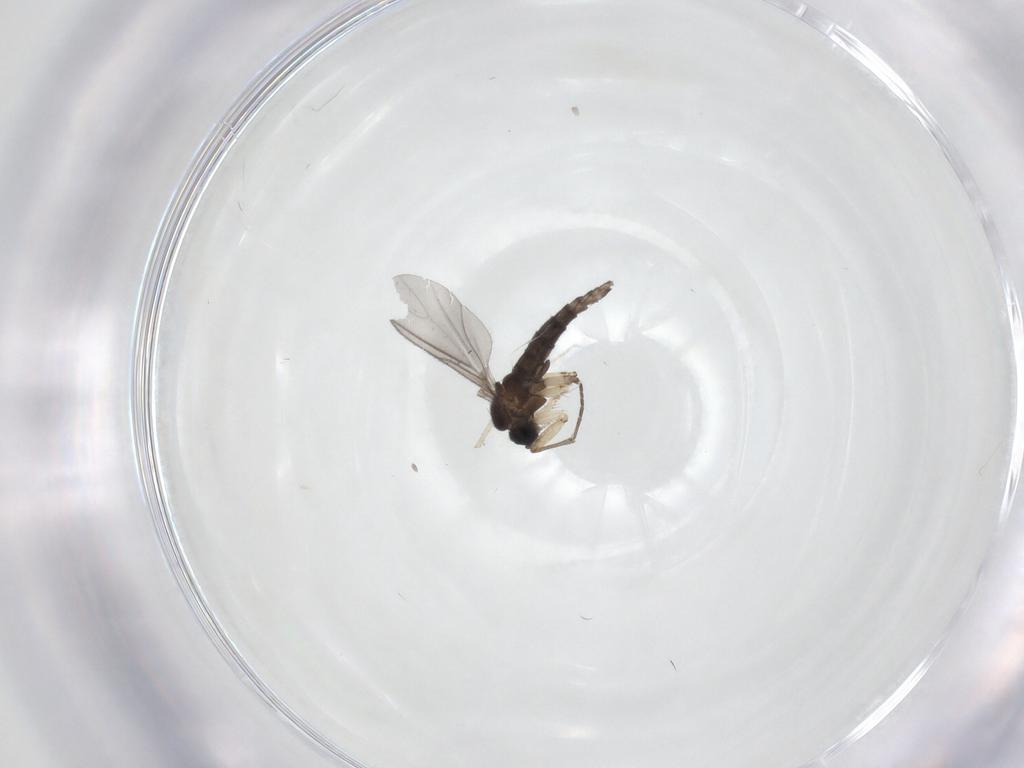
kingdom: Animalia
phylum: Arthropoda
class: Insecta
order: Diptera
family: Sciaridae
